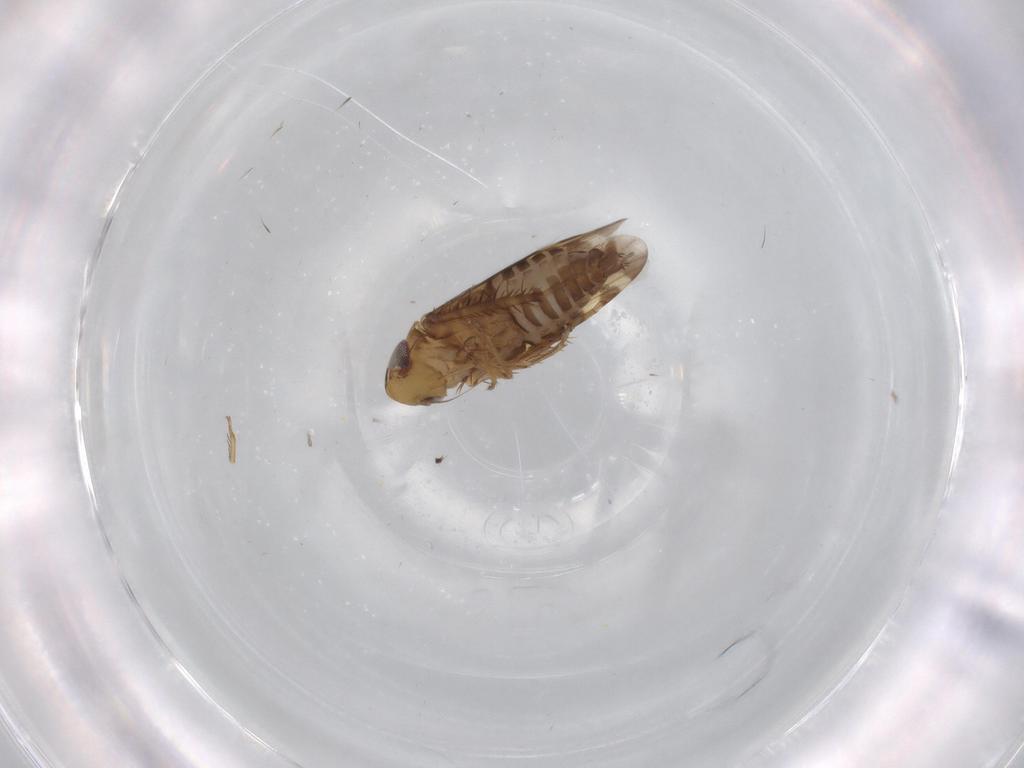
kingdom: Animalia
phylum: Arthropoda
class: Insecta
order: Hemiptera
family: Cicadellidae
